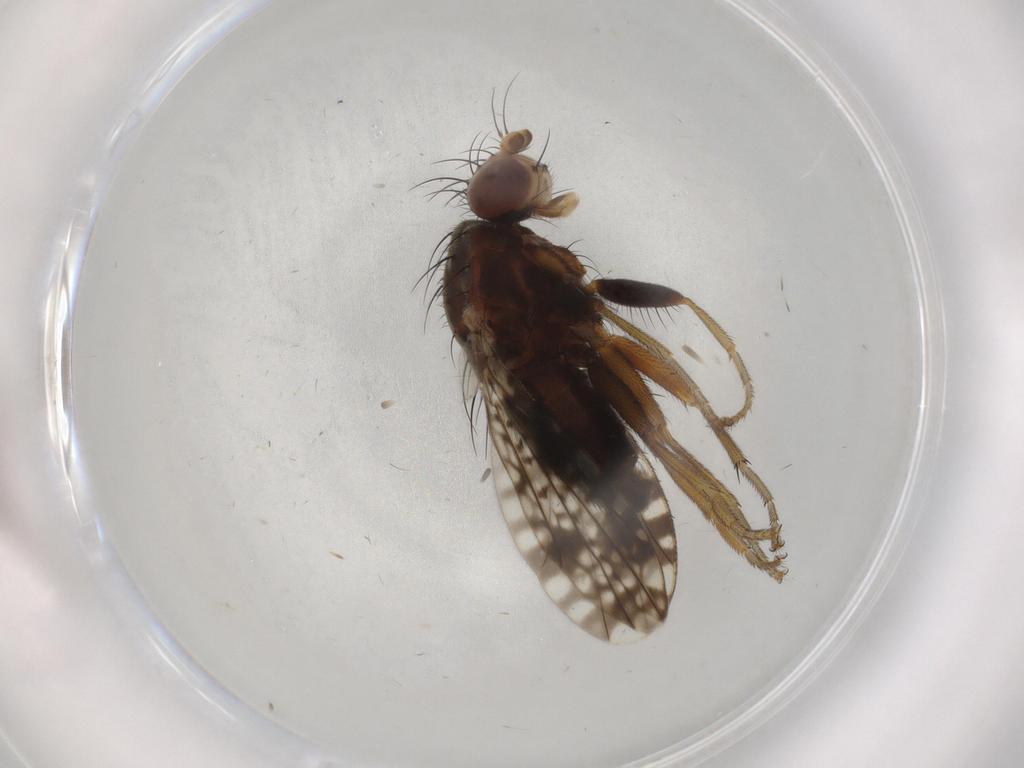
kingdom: Animalia
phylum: Arthropoda
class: Insecta
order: Diptera
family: Tephritidae
